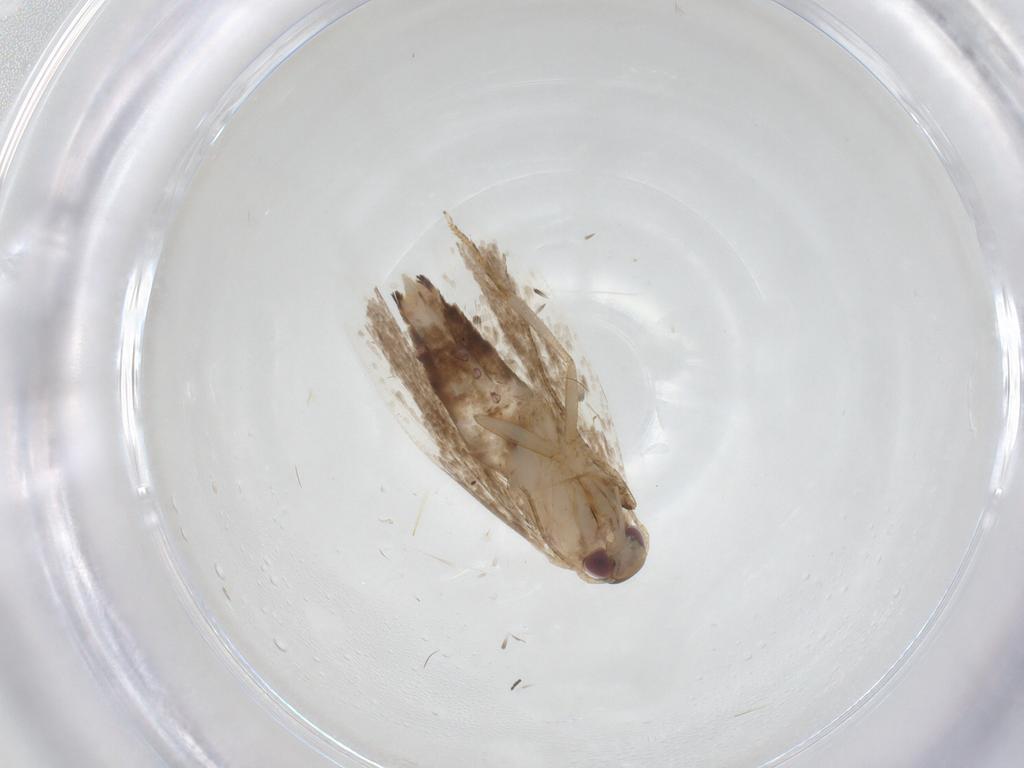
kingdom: Animalia
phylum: Arthropoda
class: Insecta
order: Lepidoptera
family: Gelechiidae
